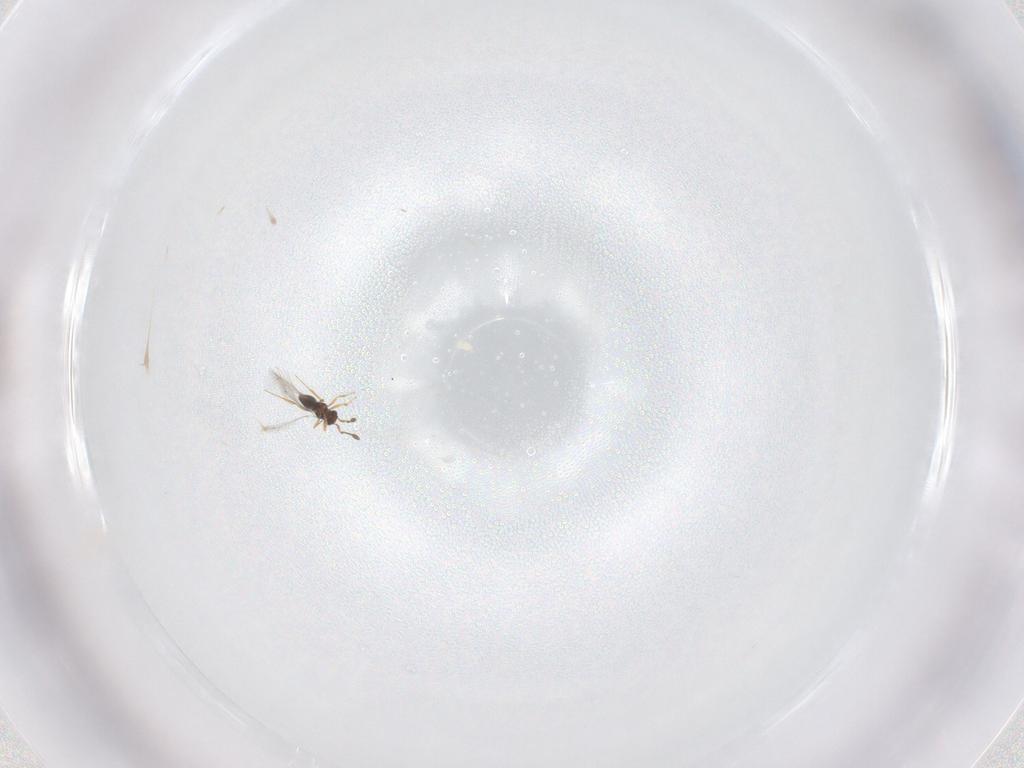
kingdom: Animalia
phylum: Arthropoda
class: Insecta
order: Hymenoptera
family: Mymaridae
